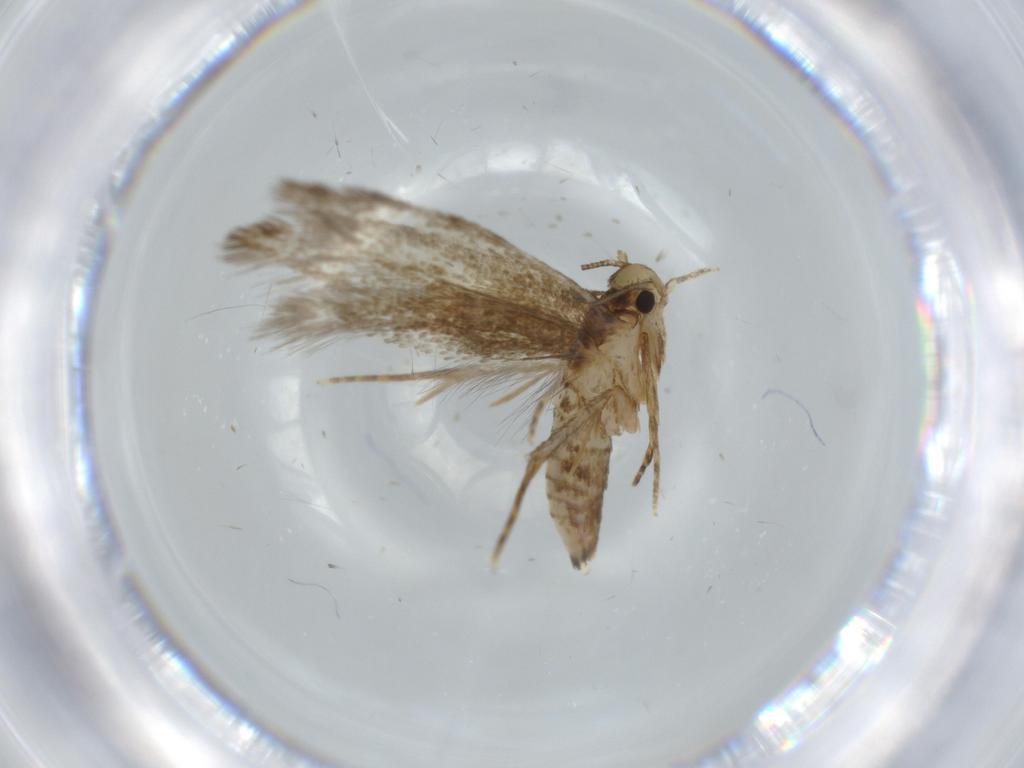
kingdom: Animalia
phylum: Arthropoda
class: Insecta
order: Lepidoptera
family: Tineidae
